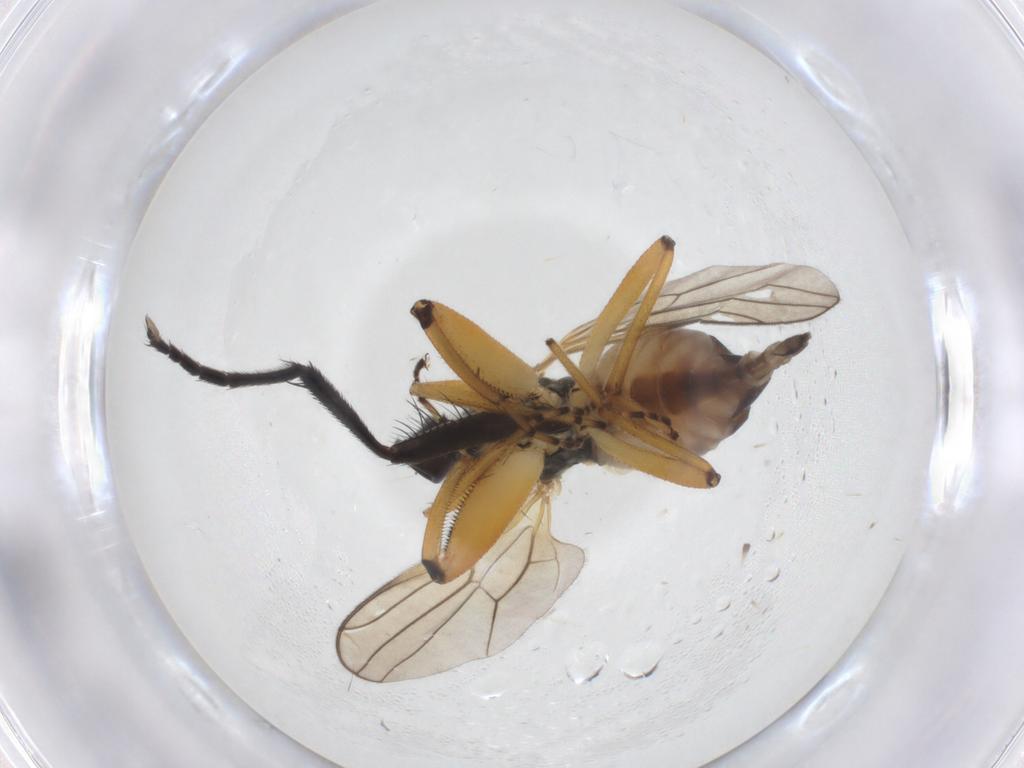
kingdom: Animalia
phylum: Arthropoda
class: Insecta
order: Diptera
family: Hybotidae
